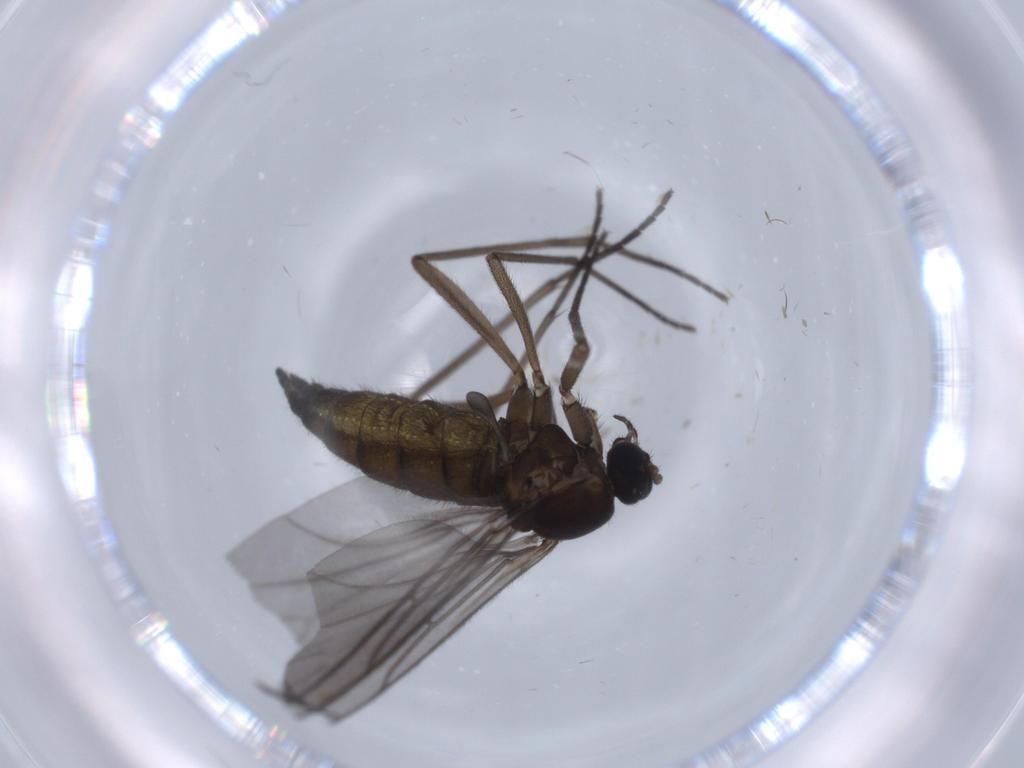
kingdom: Animalia
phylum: Arthropoda
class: Insecta
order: Diptera
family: Sciaridae
